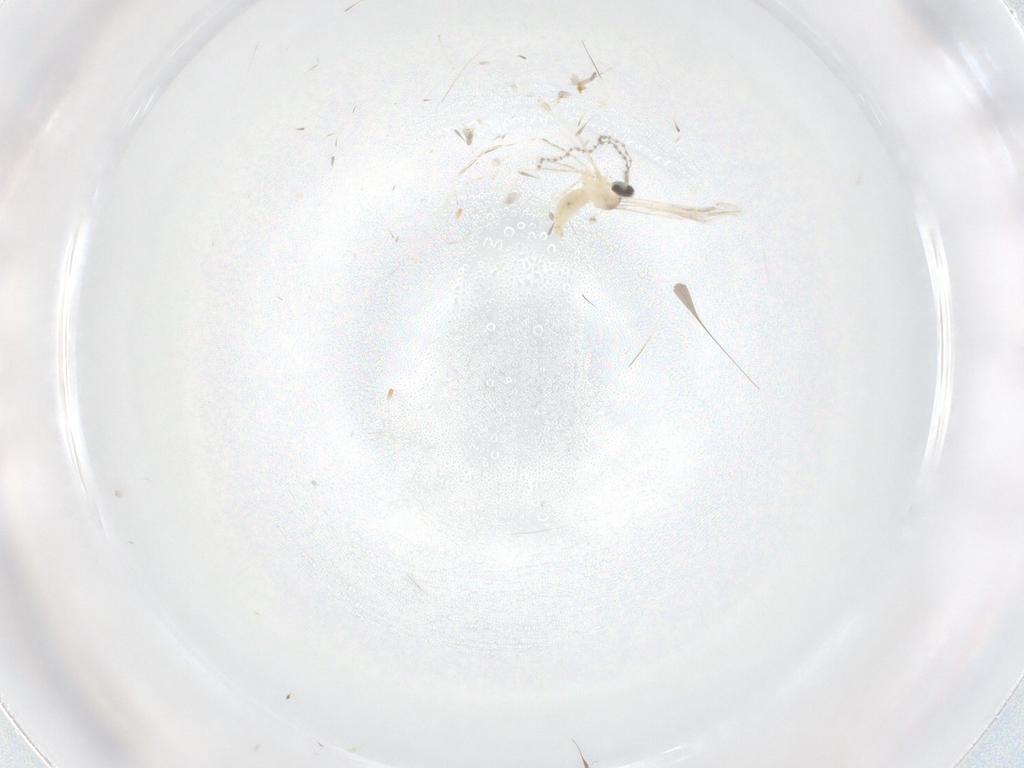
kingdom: Animalia
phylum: Arthropoda
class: Insecta
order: Diptera
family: Cecidomyiidae
